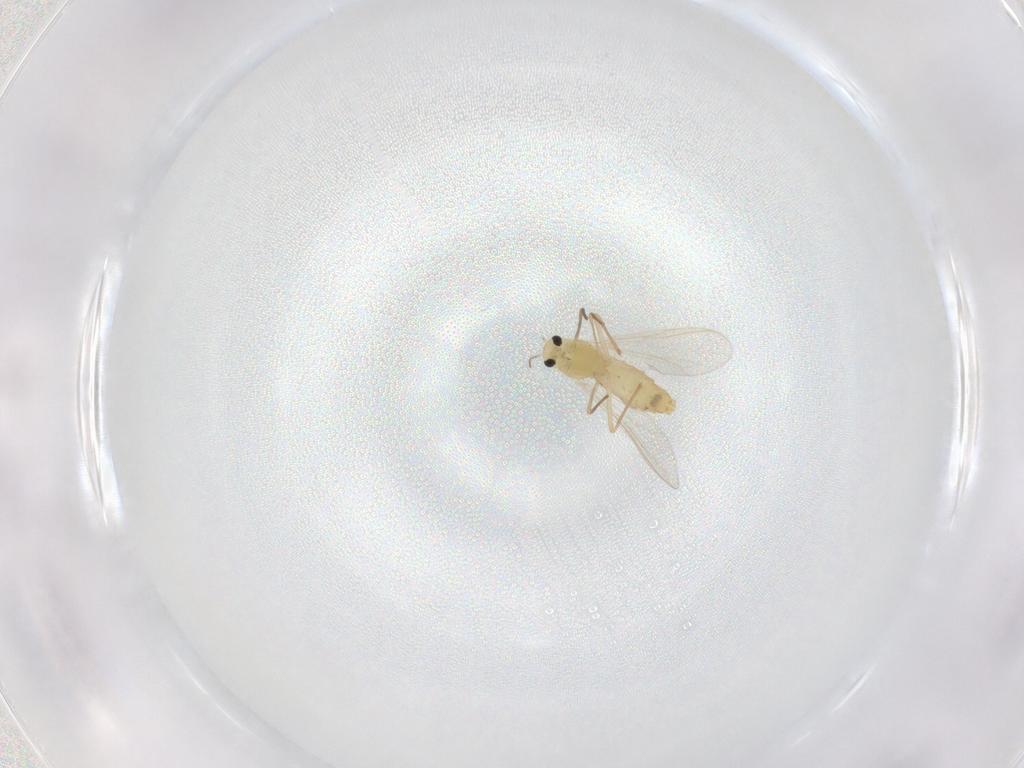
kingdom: Animalia
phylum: Arthropoda
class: Insecta
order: Diptera
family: Chironomidae
